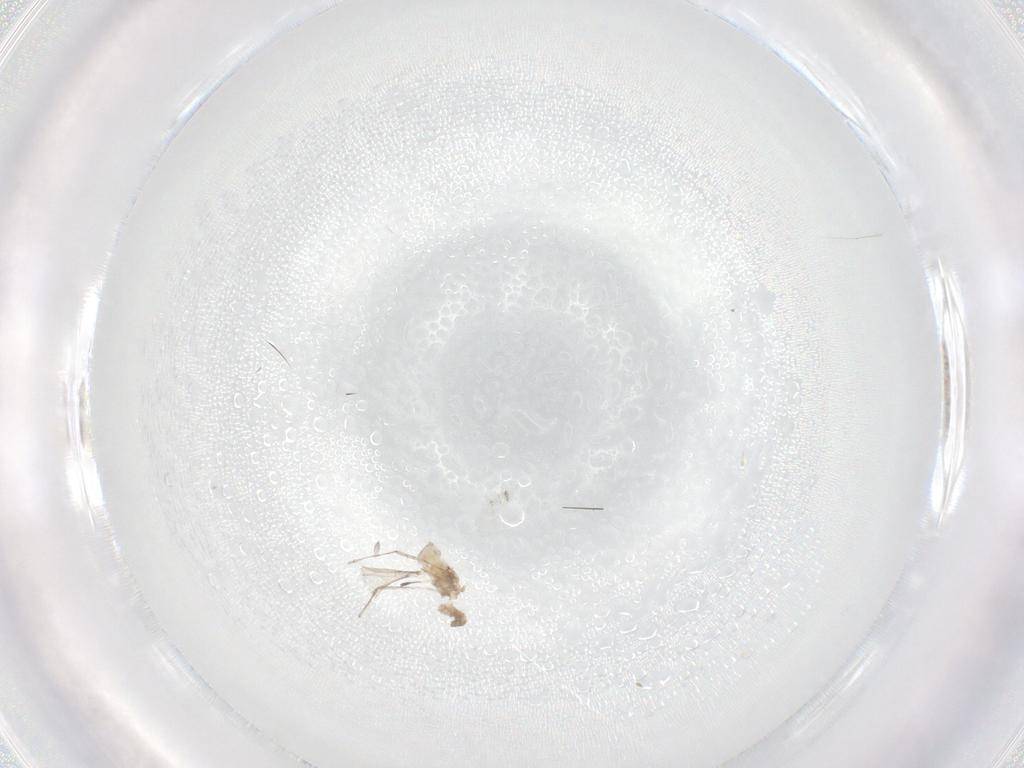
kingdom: Animalia
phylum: Arthropoda
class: Insecta
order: Diptera
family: Cecidomyiidae
